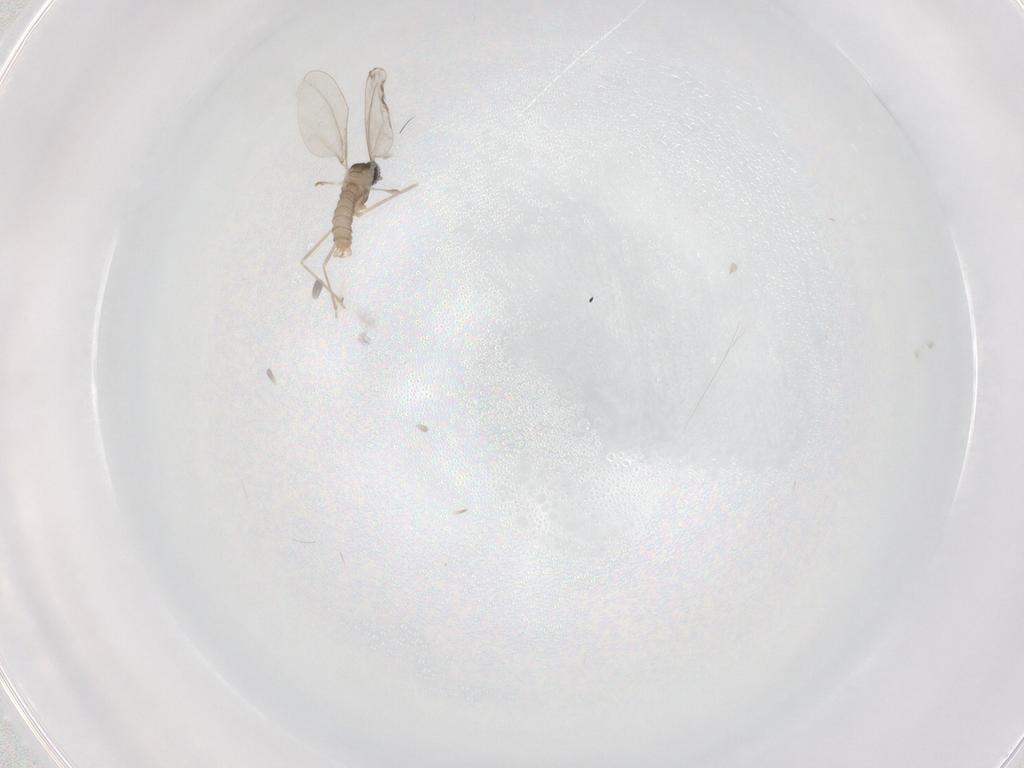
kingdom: Animalia
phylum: Arthropoda
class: Insecta
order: Diptera
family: Cecidomyiidae
